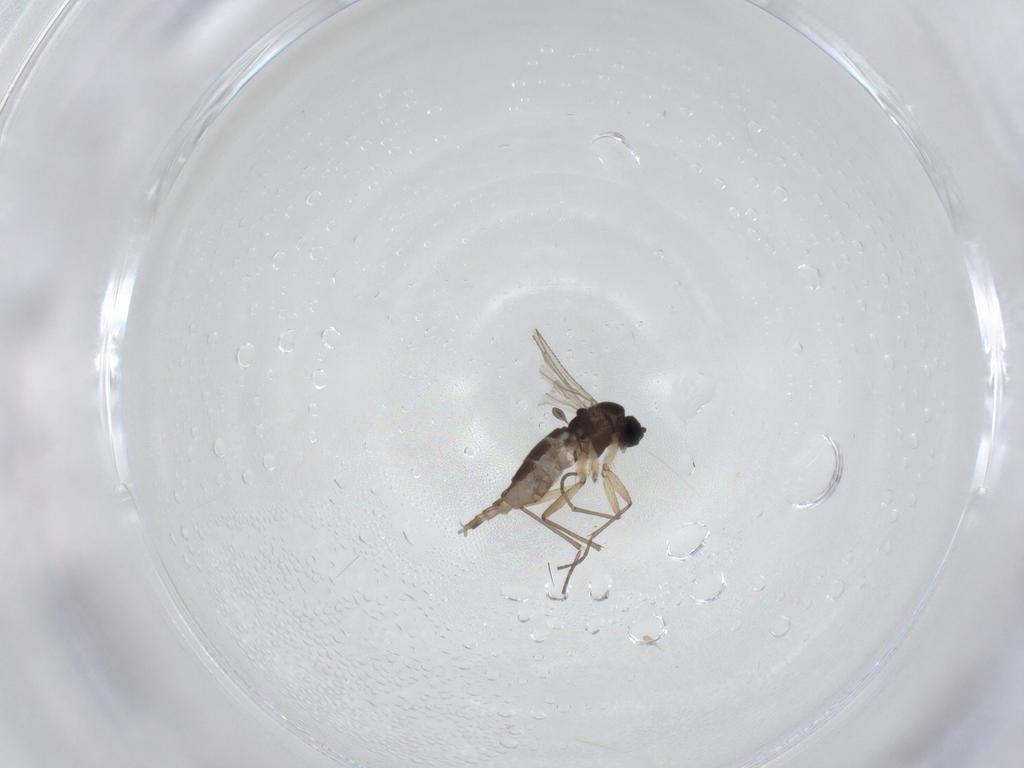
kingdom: Animalia
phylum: Arthropoda
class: Insecta
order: Diptera
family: Sciaridae
